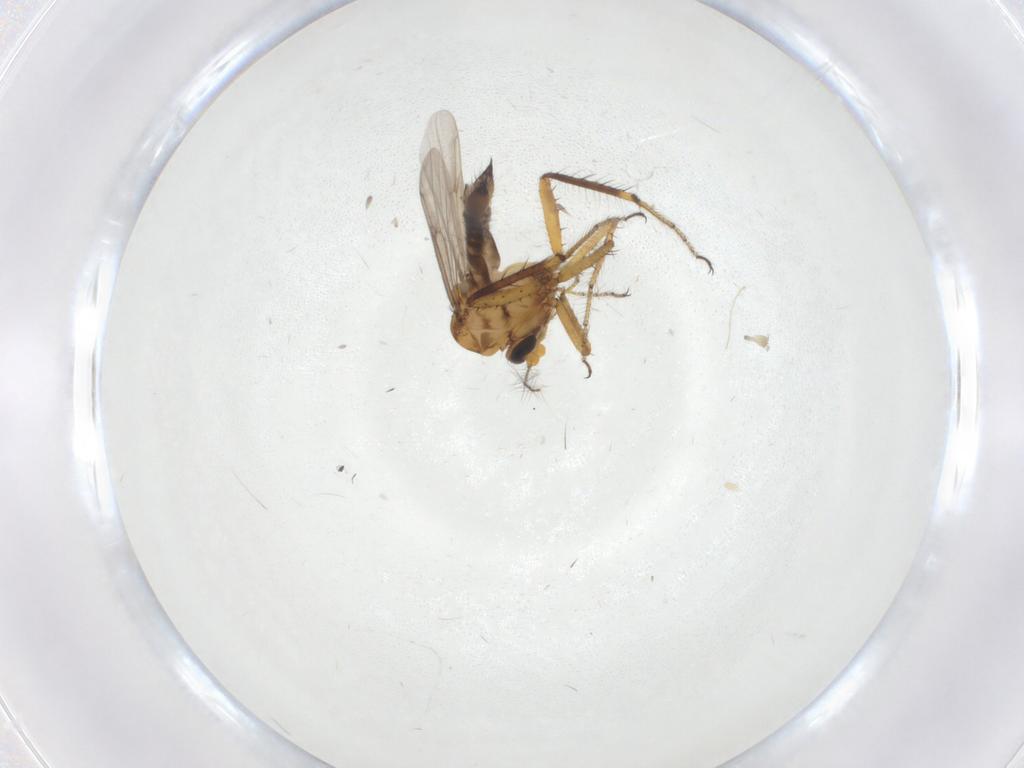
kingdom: Animalia
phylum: Arthropoda
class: Insecta
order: Diptera
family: Ceratopogonidae
